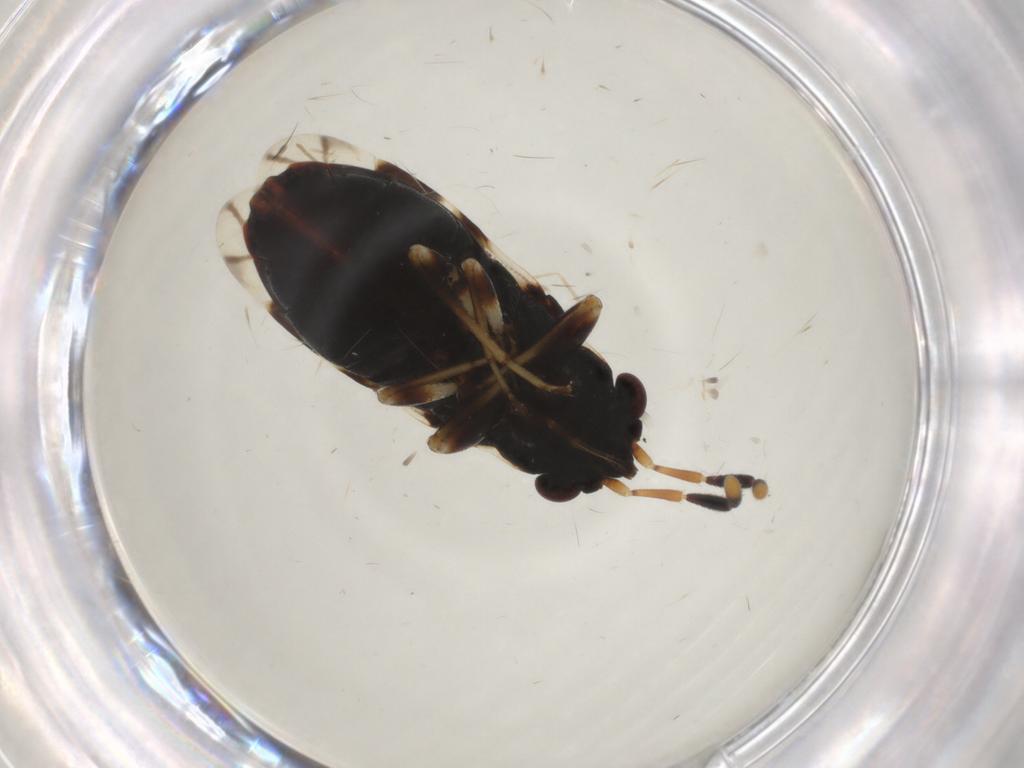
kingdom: Animalia
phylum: Arthropoda
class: Insecta
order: Hemiptera
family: Rhyparochromidae
